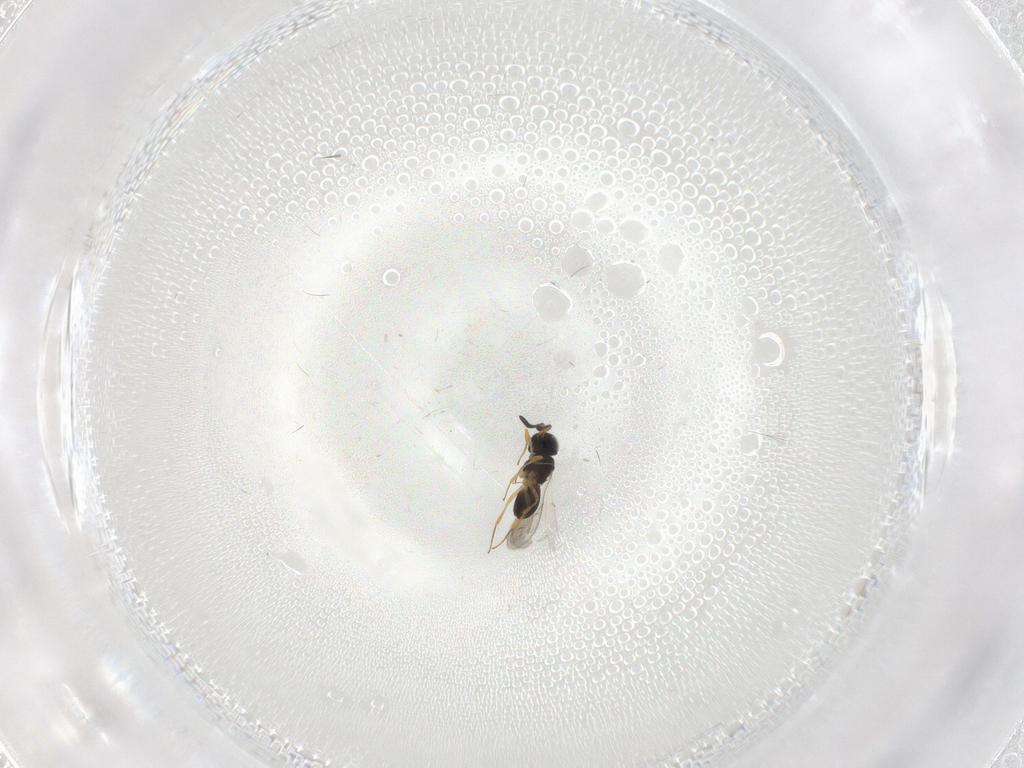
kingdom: Animalia
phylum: Arthropoda
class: Insecta
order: Hymenoptera
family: Scelionidae
